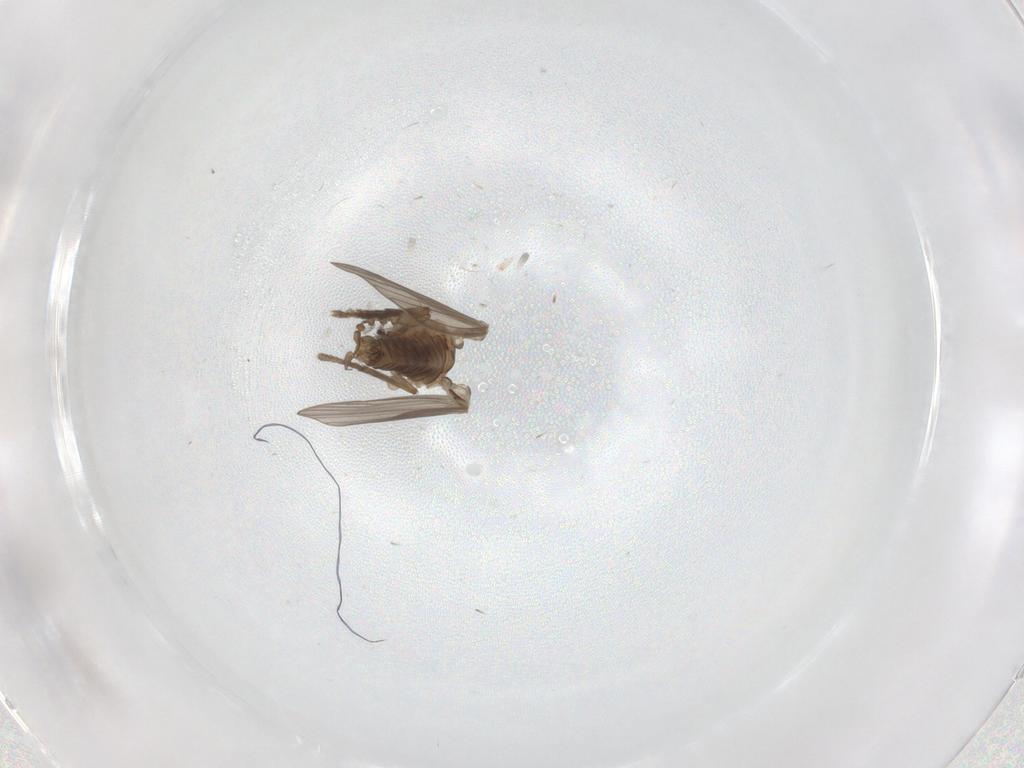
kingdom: Animalia
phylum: Arthropoda
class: Insecta
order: Diptera
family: Psychodidae
